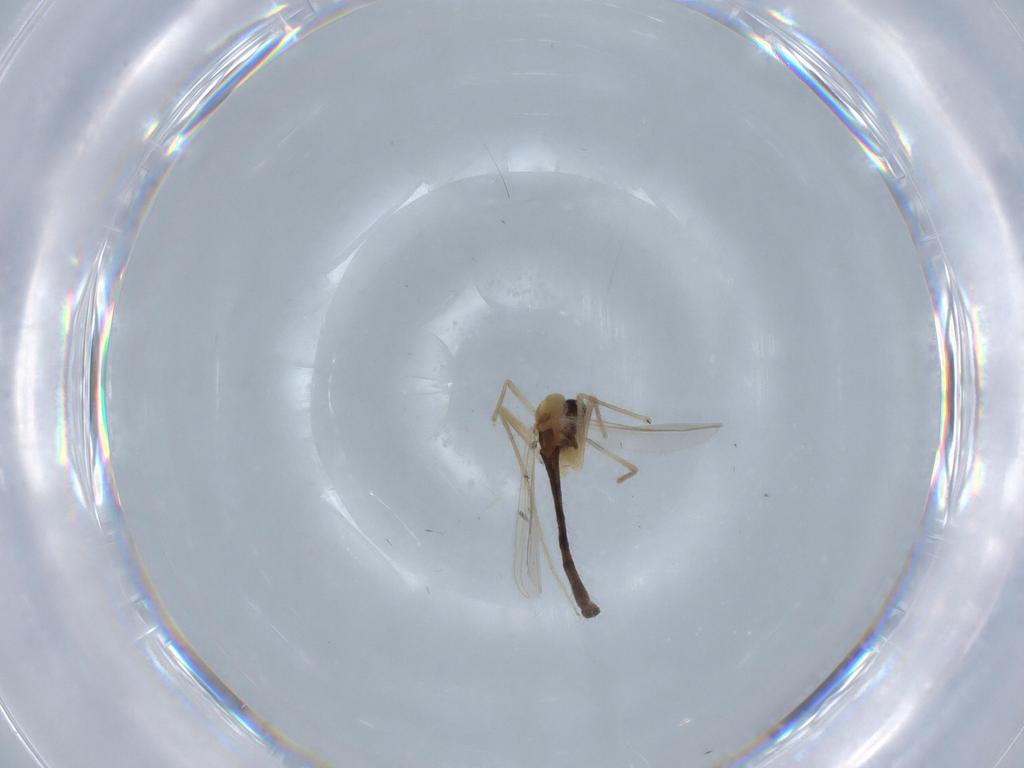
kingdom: Animalia
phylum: Arthropoda
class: Insecta
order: Diptera
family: Chironomidae
